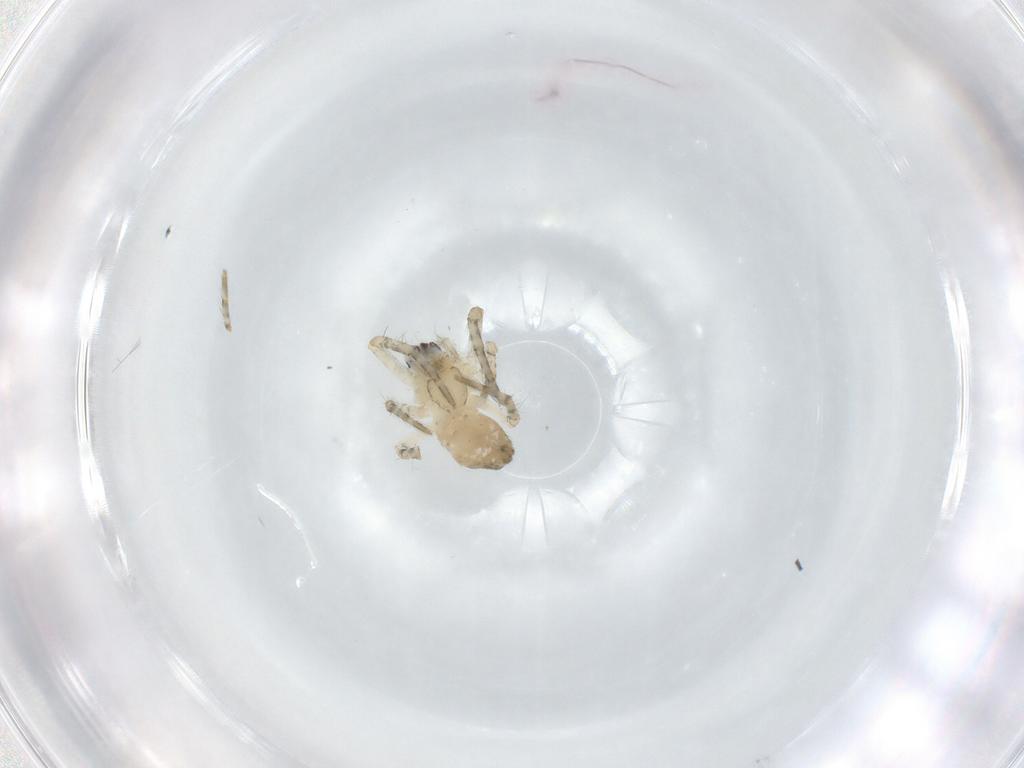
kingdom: Animalia
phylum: Arthropoda
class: Arachnida
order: Araneae
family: Araneidae
